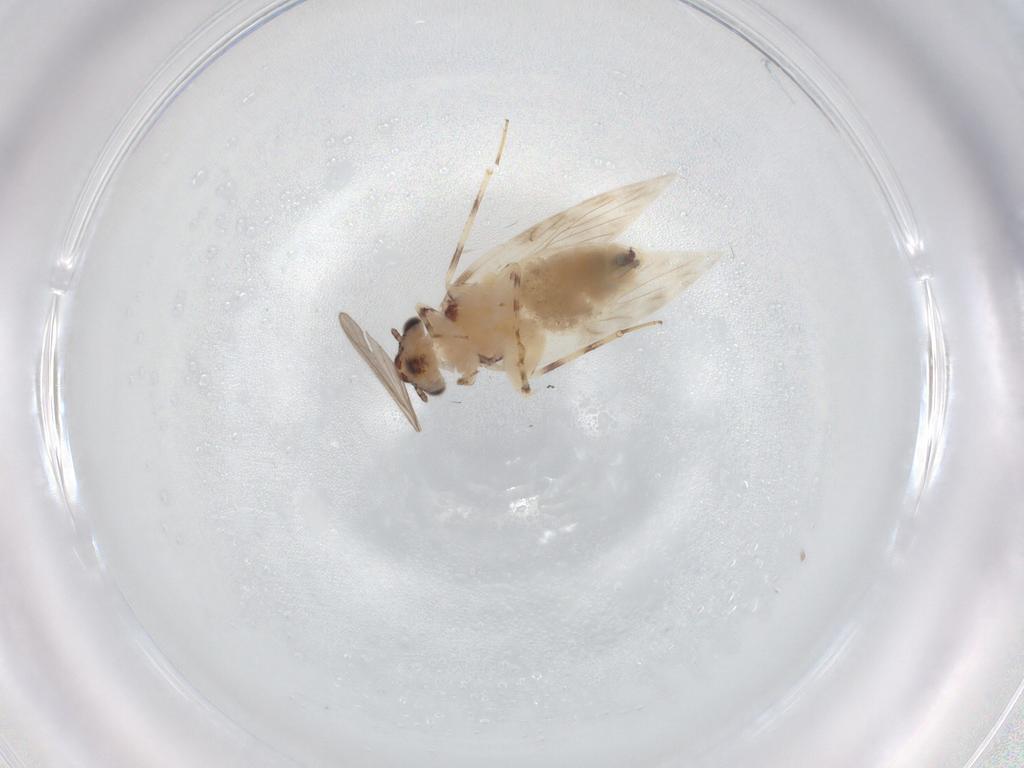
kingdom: Animalia
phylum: Arthropoda
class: Insecta
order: Psocodea
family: Lepidopsocidae
